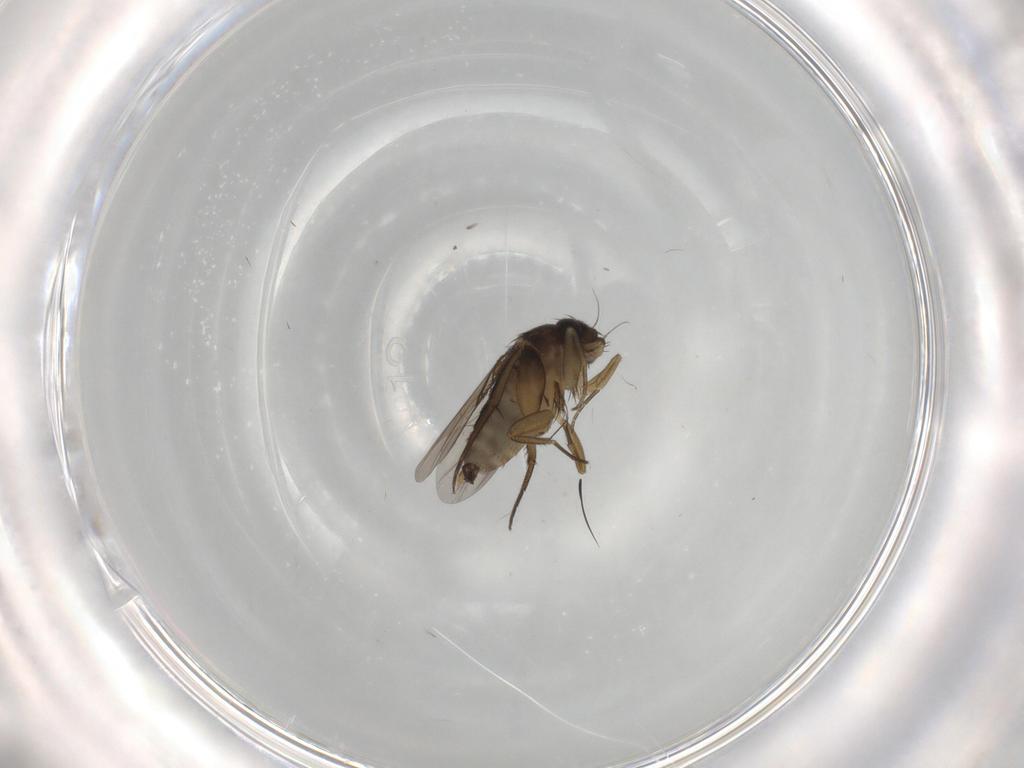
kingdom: Animalia
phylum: Arthropoda
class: Insecta
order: Diptera
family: Phoridae
